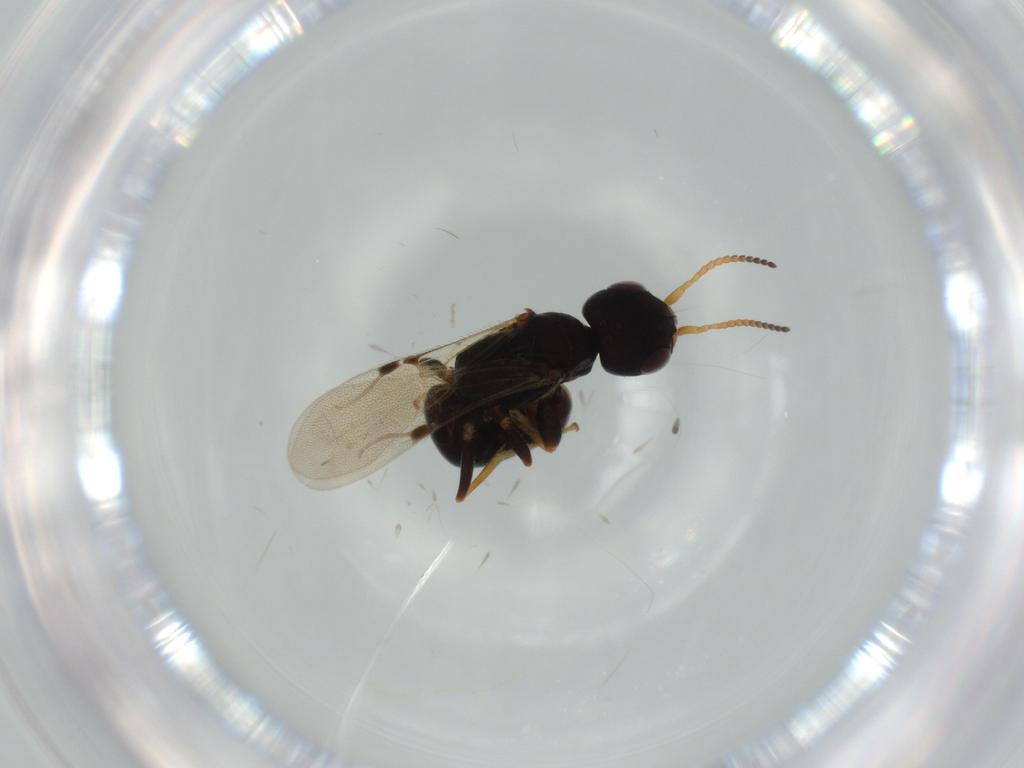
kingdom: Animalia
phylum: Arthropoda
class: Insecta
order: Hymenoptera
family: Bethylidae
